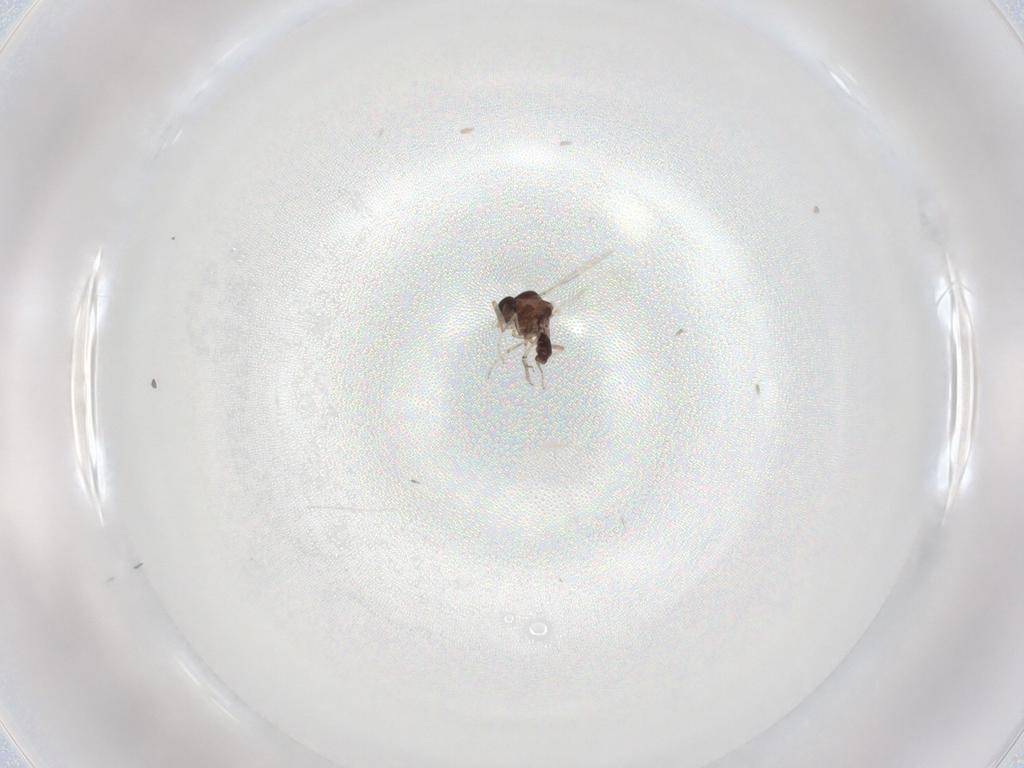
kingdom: Animalia
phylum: Arthropoda
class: Insecta
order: Diptera
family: Ceratopogonidae
